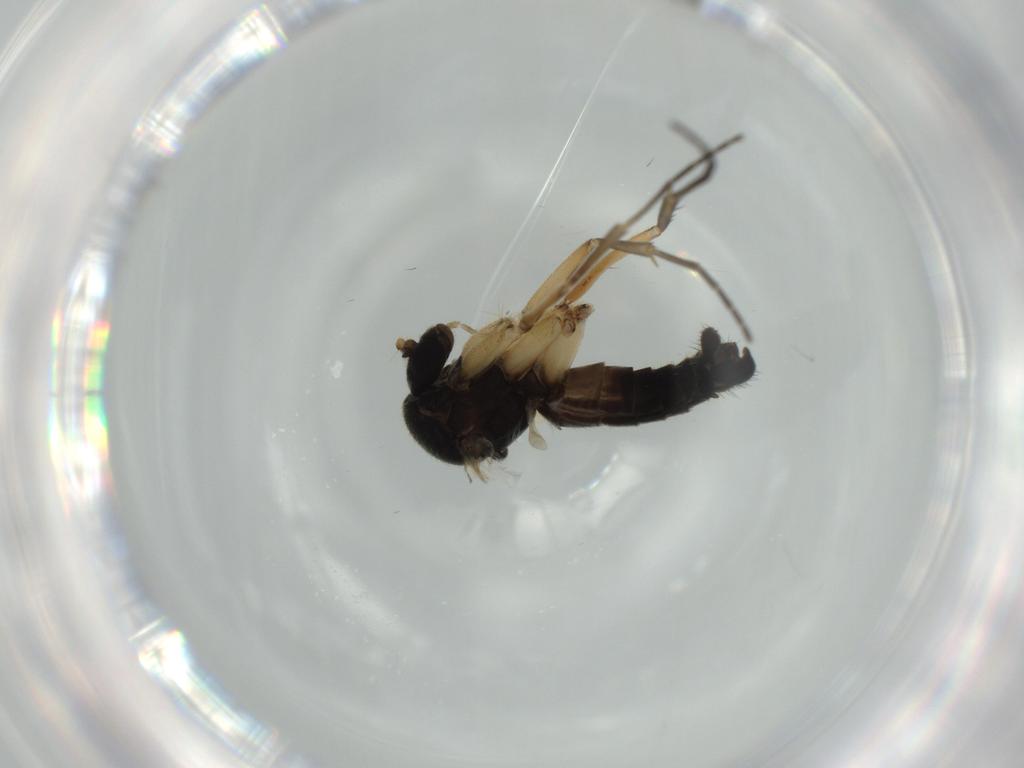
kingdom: Animalia
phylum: Arthropoda
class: Insecta
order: Diptera
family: Cecidomyiidae
